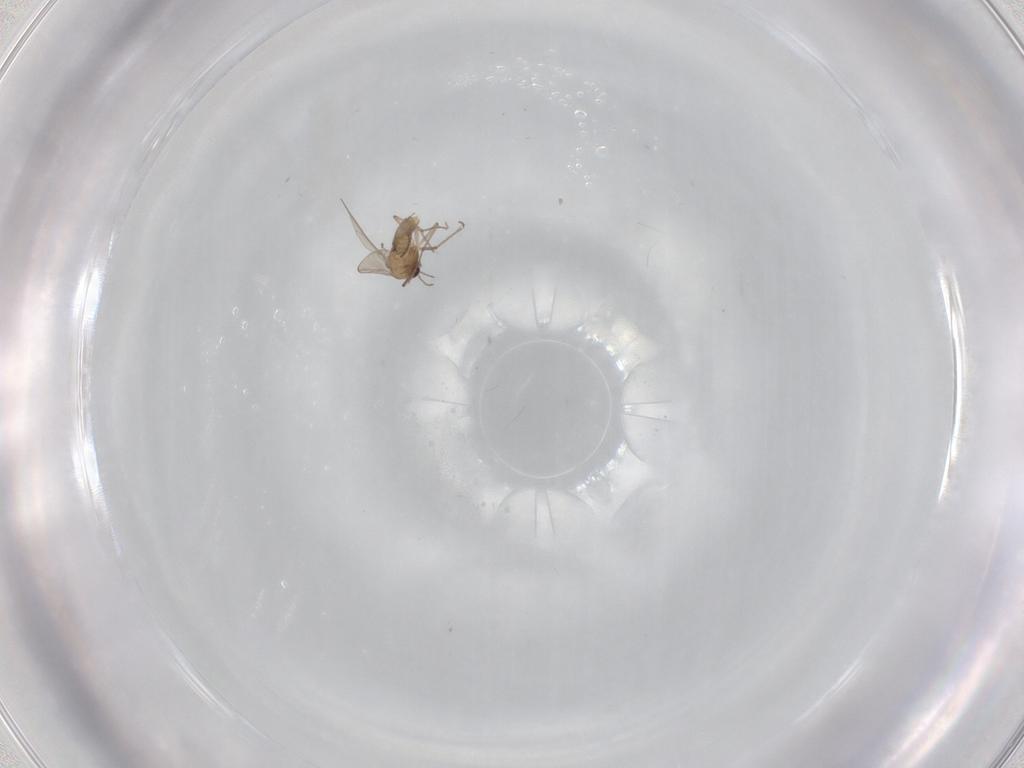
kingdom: Animalia
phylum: Arthropoda
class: Insecta
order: Diptera
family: Chironomidae
